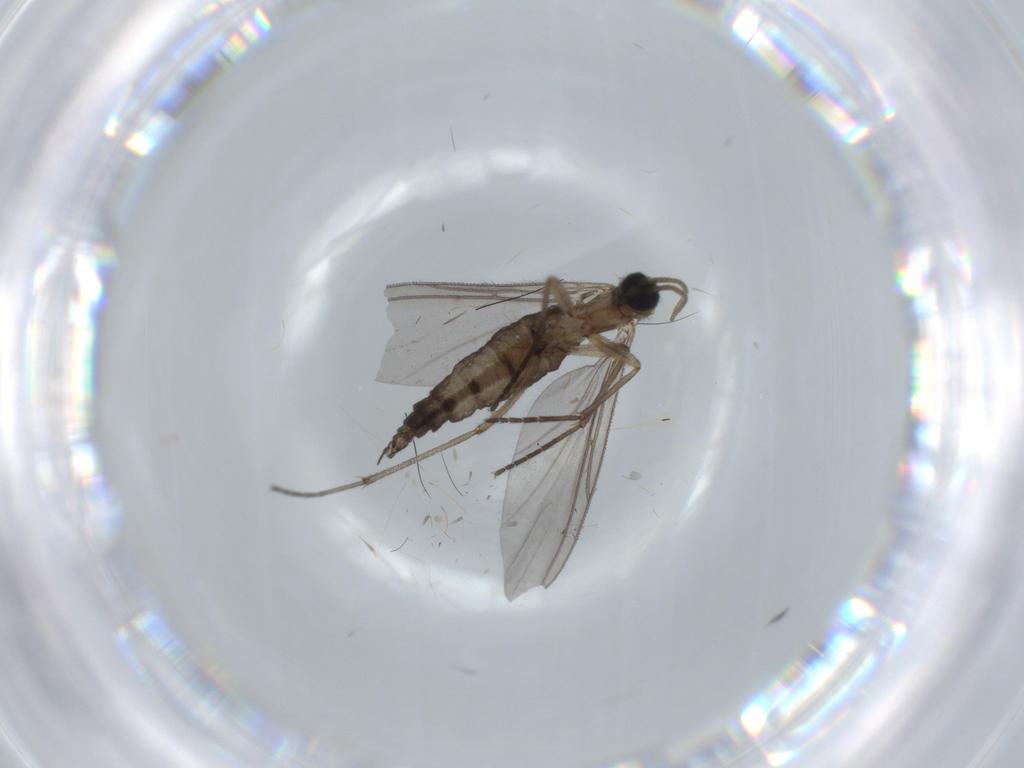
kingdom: Animalia
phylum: Arthropoda
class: Insecta
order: Diptera
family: Sciaridae
